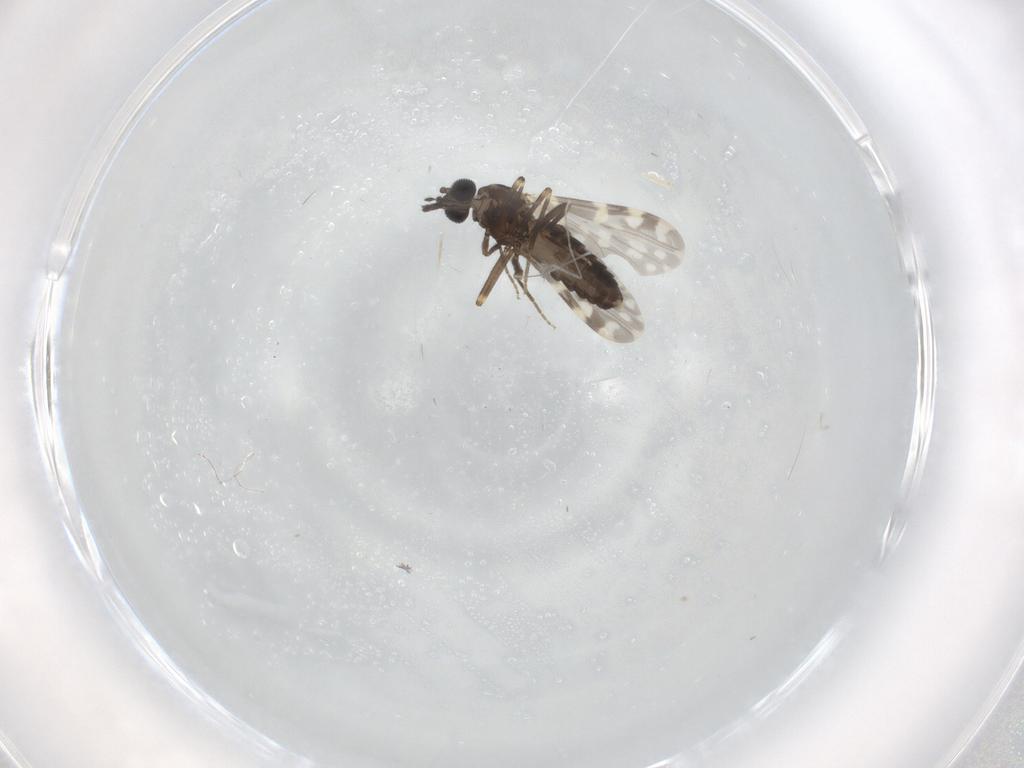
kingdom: Animalia
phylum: Arthropoda
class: Insecta
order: Diptera
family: Ceratopogonidae
